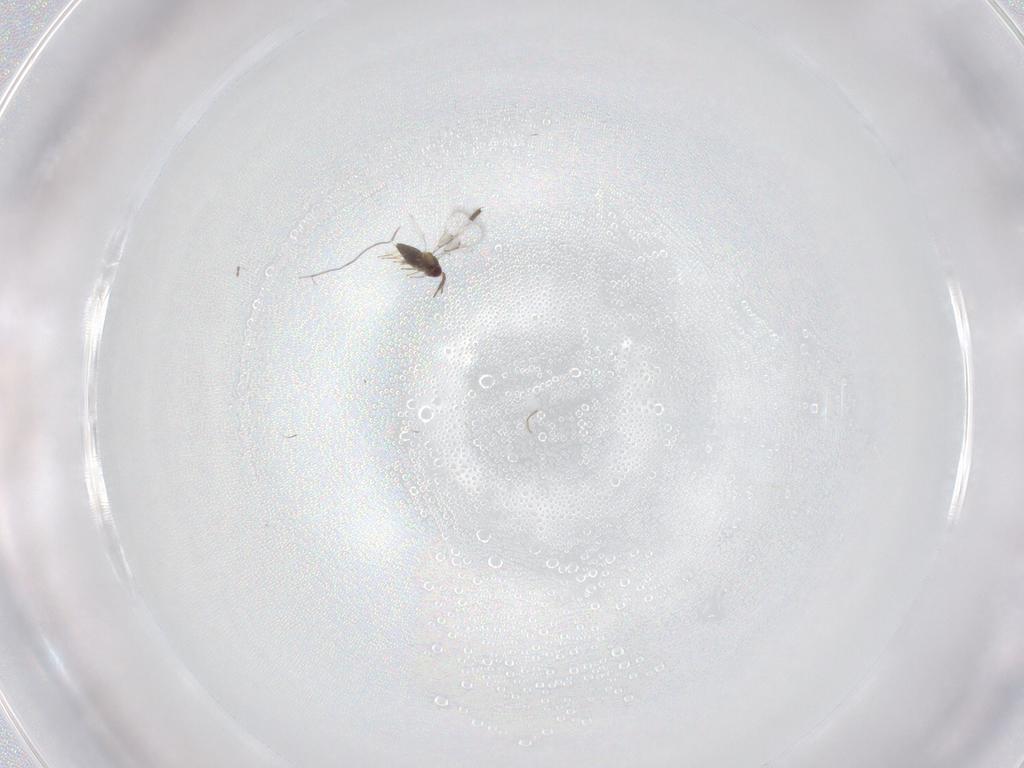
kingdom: Animalia
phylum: Arthropoda
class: Insecta
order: Hymenoptera
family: Trichogrammatidae
